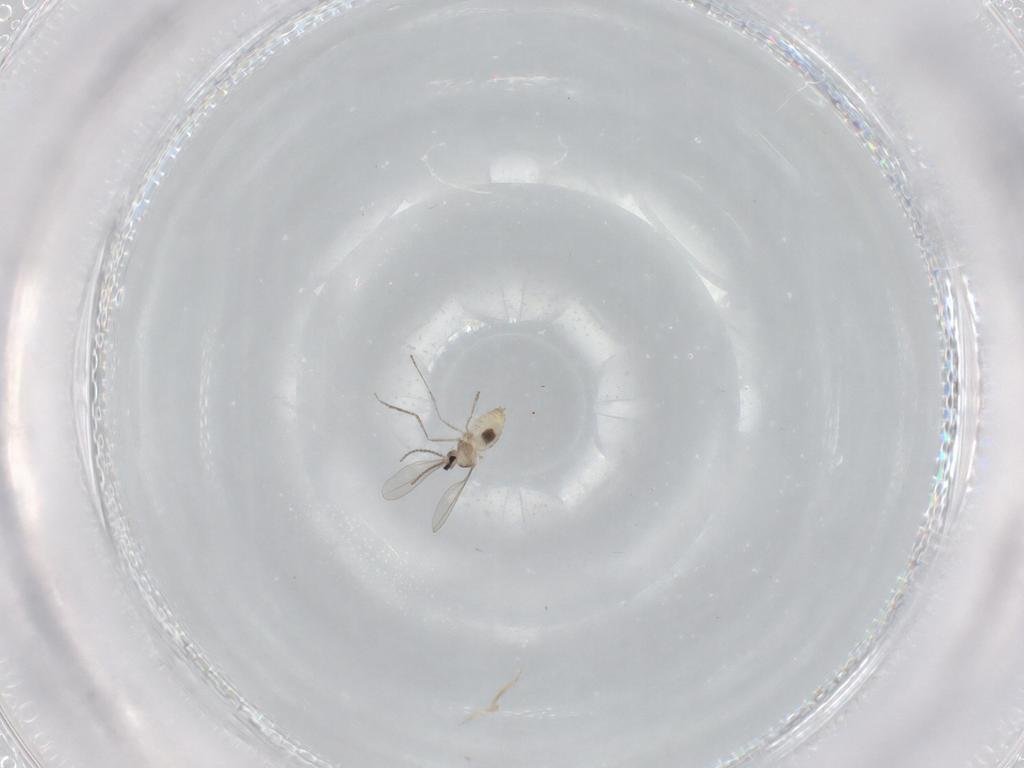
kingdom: Animalia
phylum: Arthropoda
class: Insecta
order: Diptera
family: Cecidomyiidae
